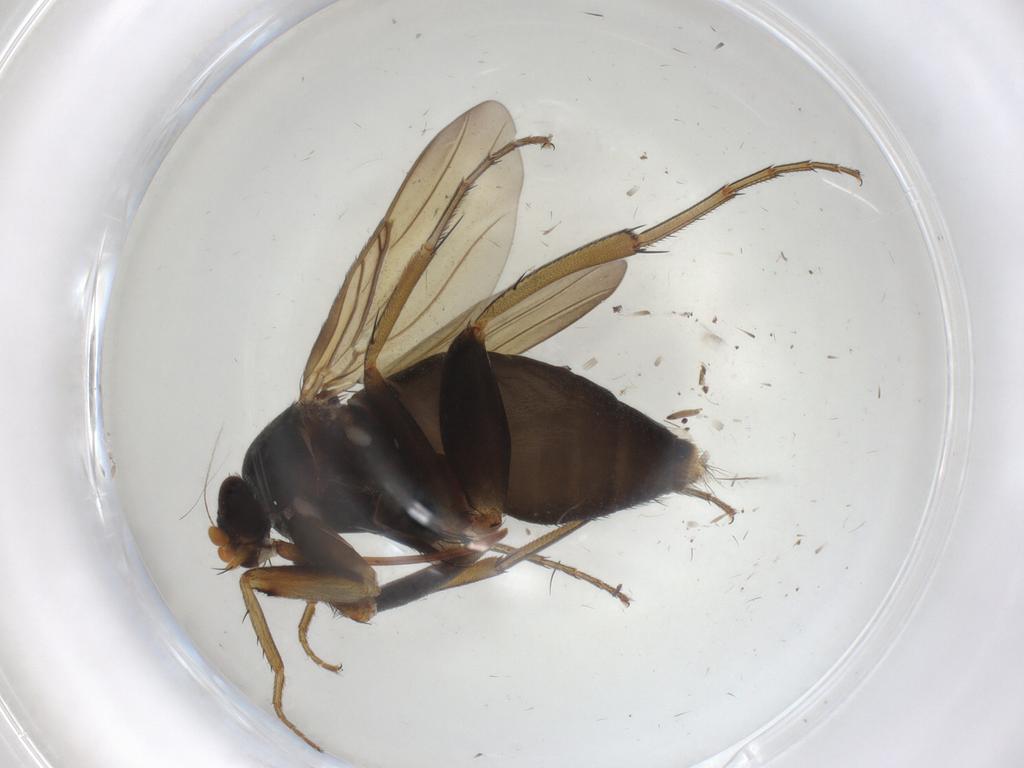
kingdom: Animalia
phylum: Arthropoda
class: Insecta
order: Diptera
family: Phoridae
